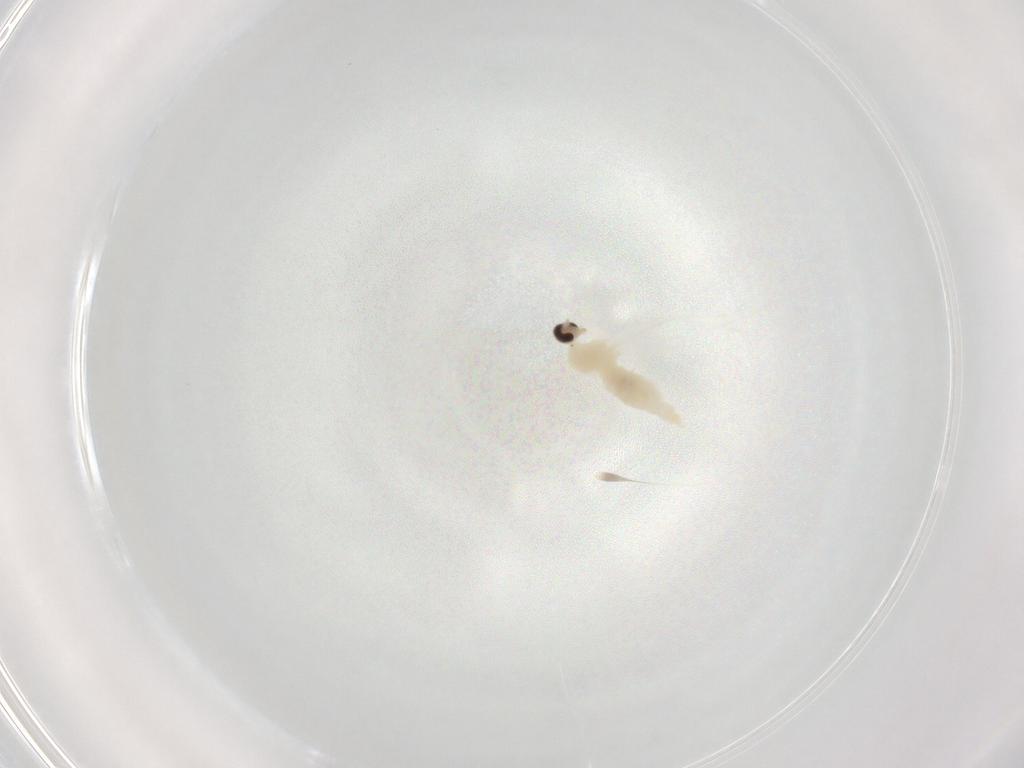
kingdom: Animalia
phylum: Arthropoda
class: Insecta
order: Diptera
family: Cecidomyiidae
